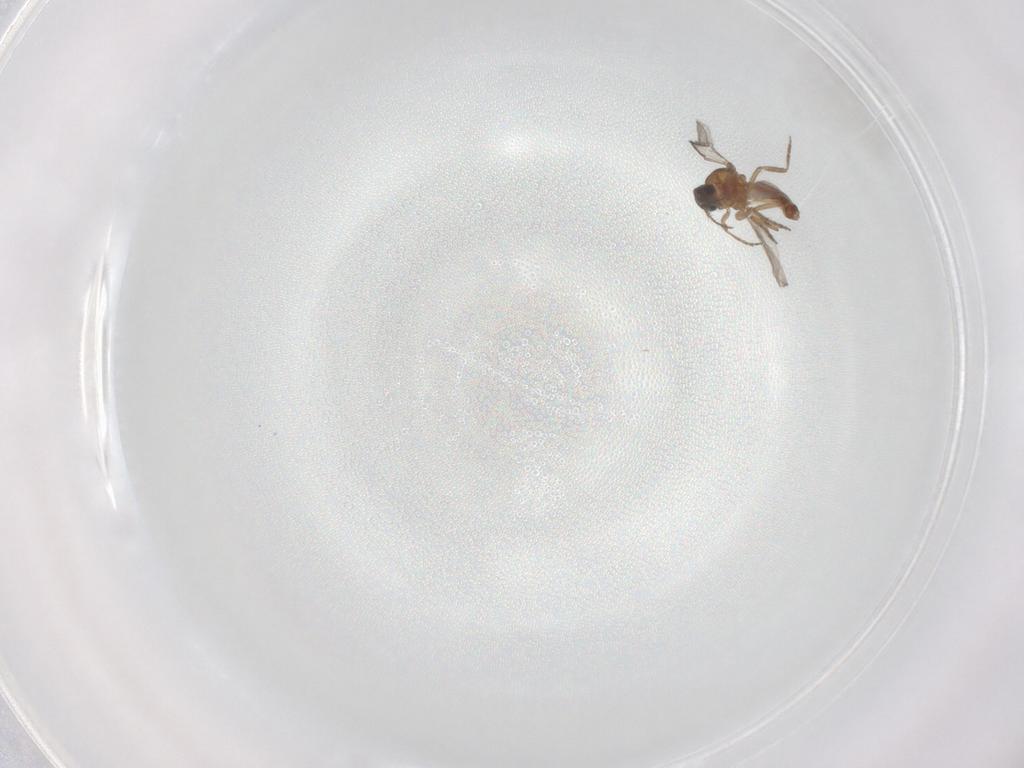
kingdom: Animalia
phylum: Arthropoda
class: Insecta
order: Diptera
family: Chironomidae
